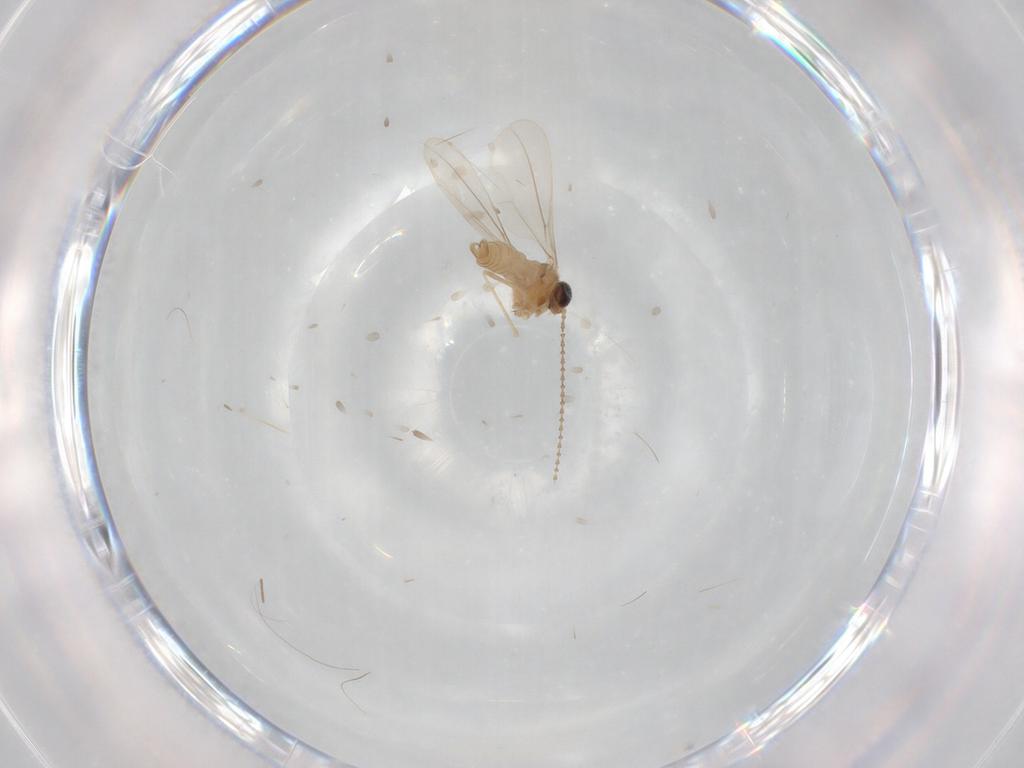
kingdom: Animalia
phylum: Arthropoda
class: Insecta
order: Diptera
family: Cecidomyiidae
